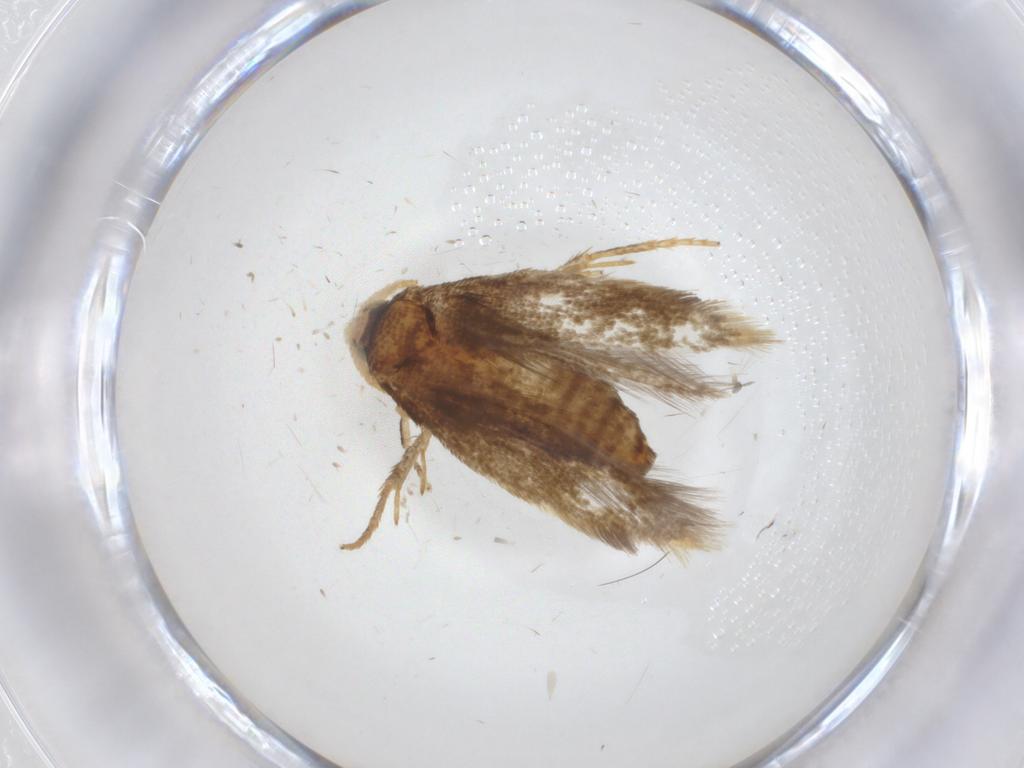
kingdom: Animalia
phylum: Arthropoda
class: Insecta
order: Lepidoptera
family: Nepticulidae
